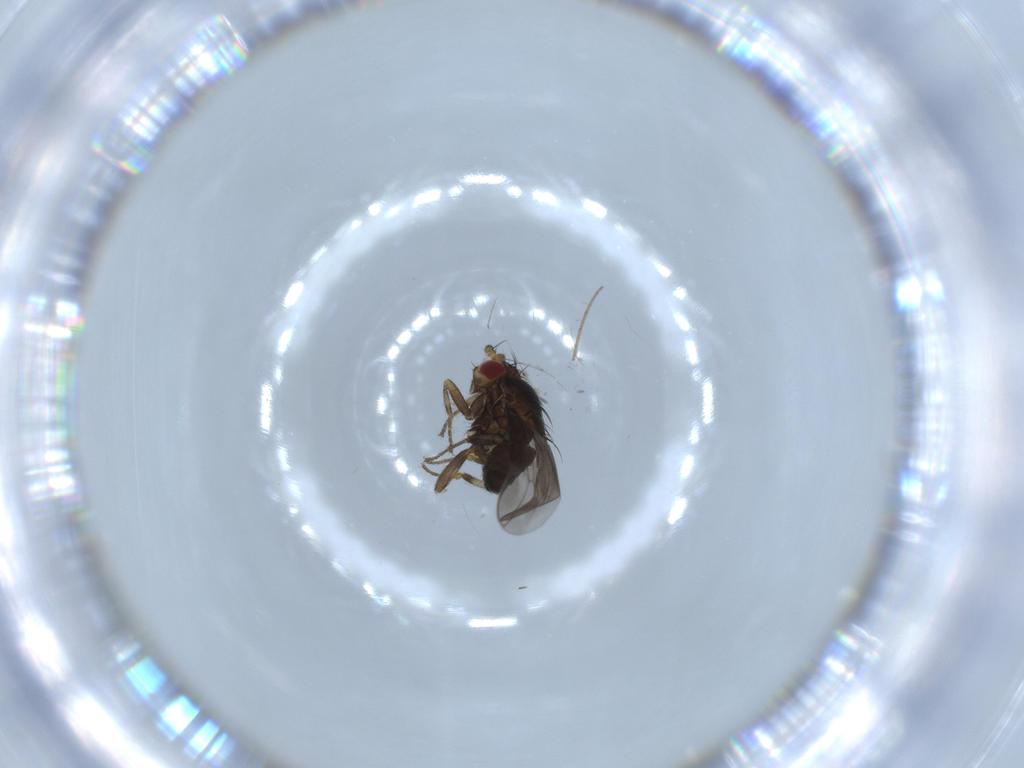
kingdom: Animalia
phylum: Arthropoda
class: Insecta
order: Diptera
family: Sphaeroceridae
